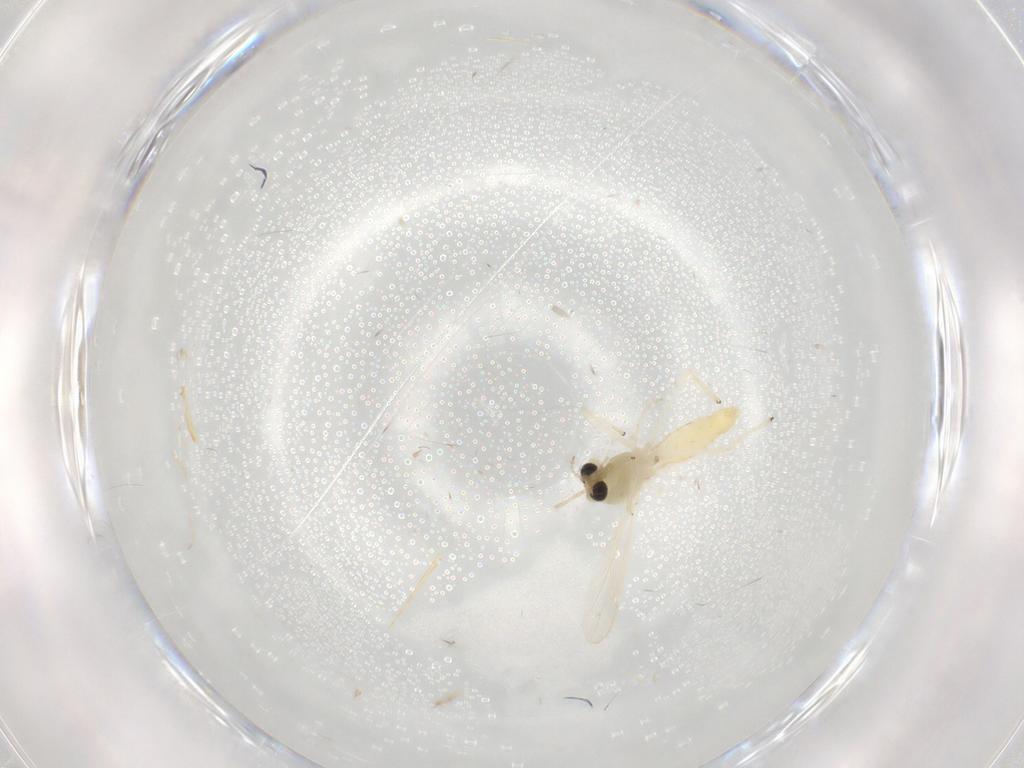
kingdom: Animalia
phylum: Arthropoda
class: Insecta
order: Diptera
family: Chironomidae
